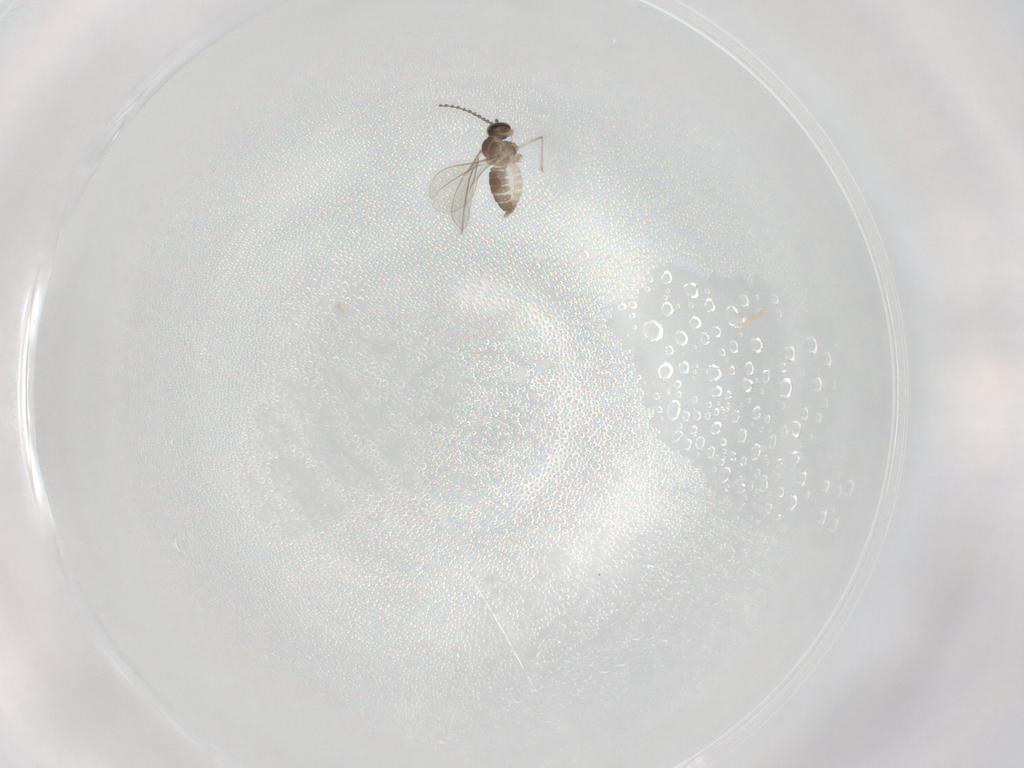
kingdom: Animalia
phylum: Arthropoda
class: Insecta
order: Diptera
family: Cecidomyiidae
